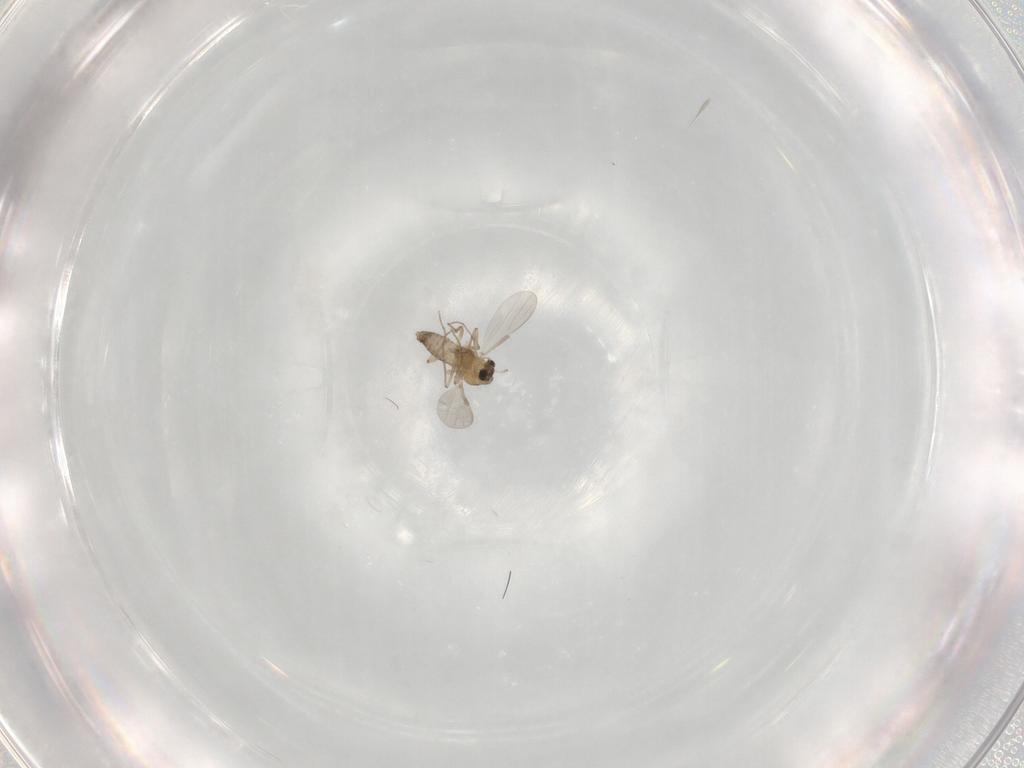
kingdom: Animalia
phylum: Arthropoda
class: Insecta
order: Diptera
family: Chironomidae
